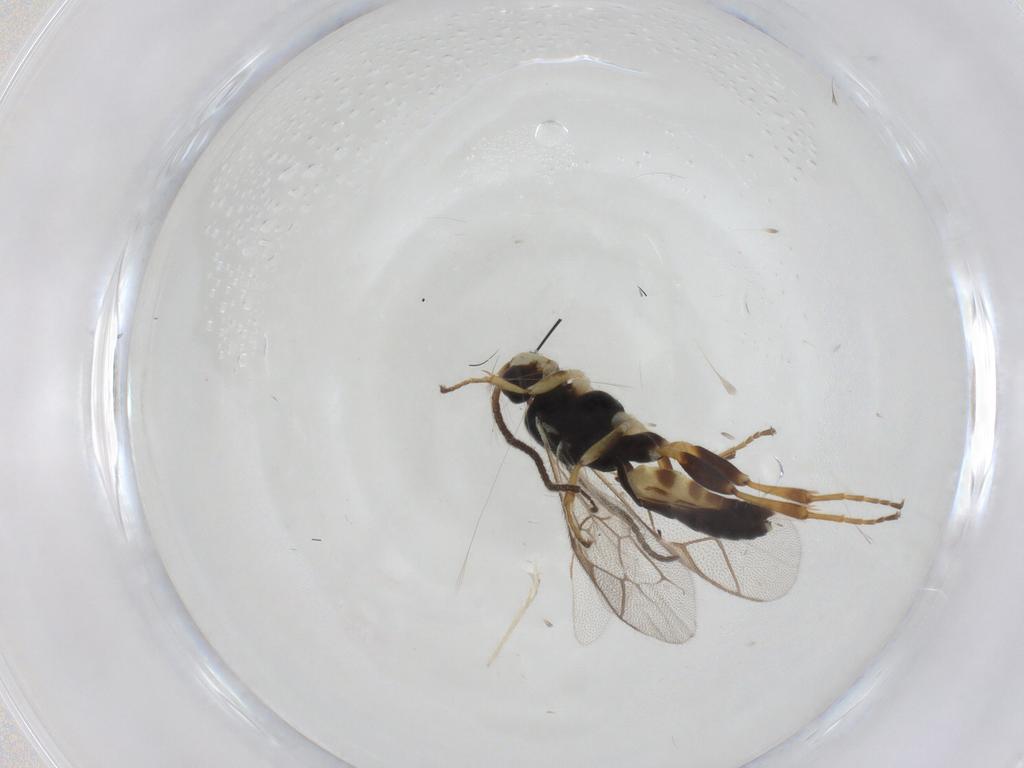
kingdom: Animalia
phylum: Arthropoda
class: Insecta
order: Hymenoptera
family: Ichneumonidae
